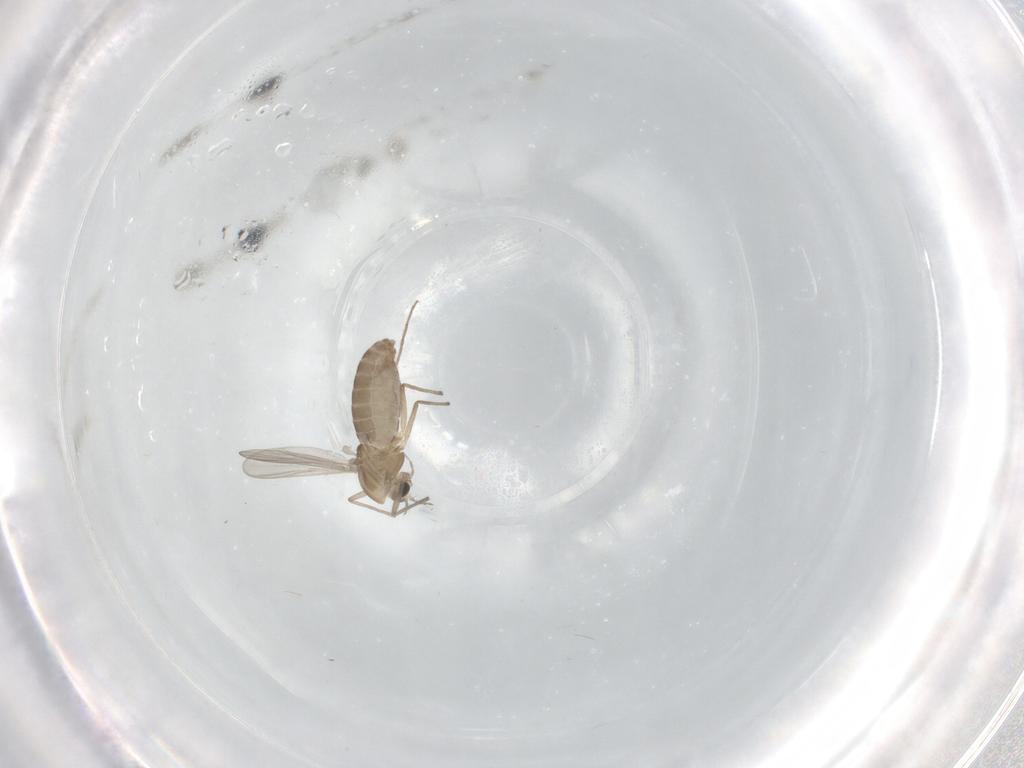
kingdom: Animalia
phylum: Arthropoda
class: Insecta
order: Diptera
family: Chironomidae
